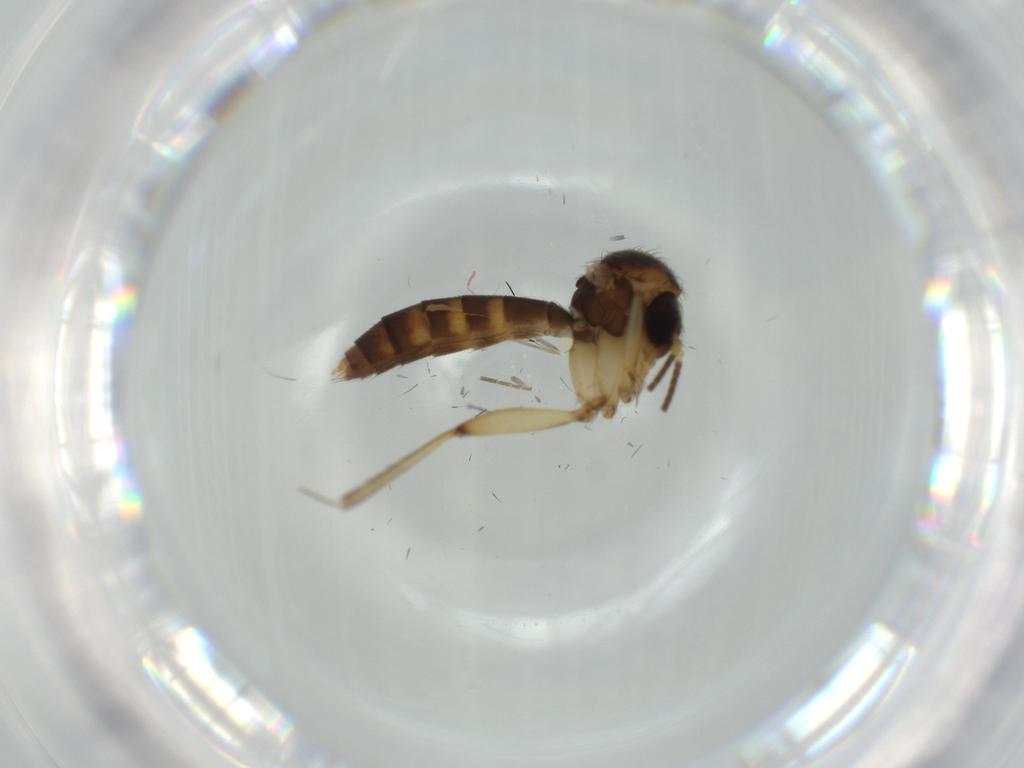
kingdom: Animalia
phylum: Arthropoda
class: Insecta
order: Diptera
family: Phoridae
